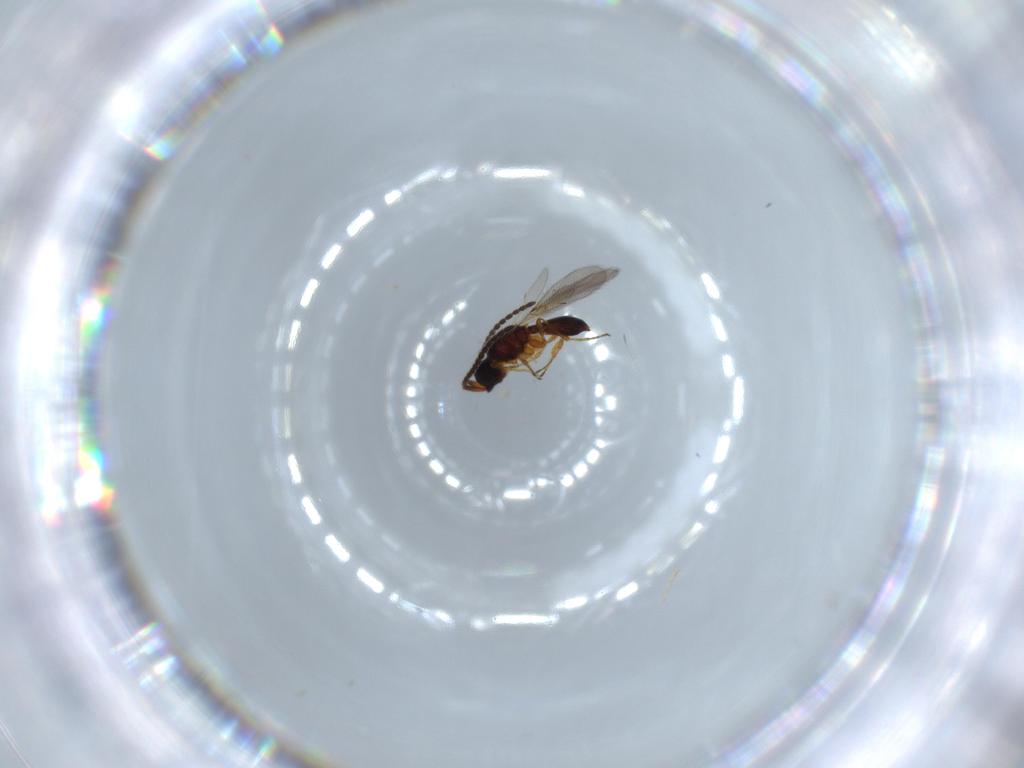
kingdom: Animalia
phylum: Arthropoda
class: Insecta
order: Hymenoptera
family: Diapriidae
